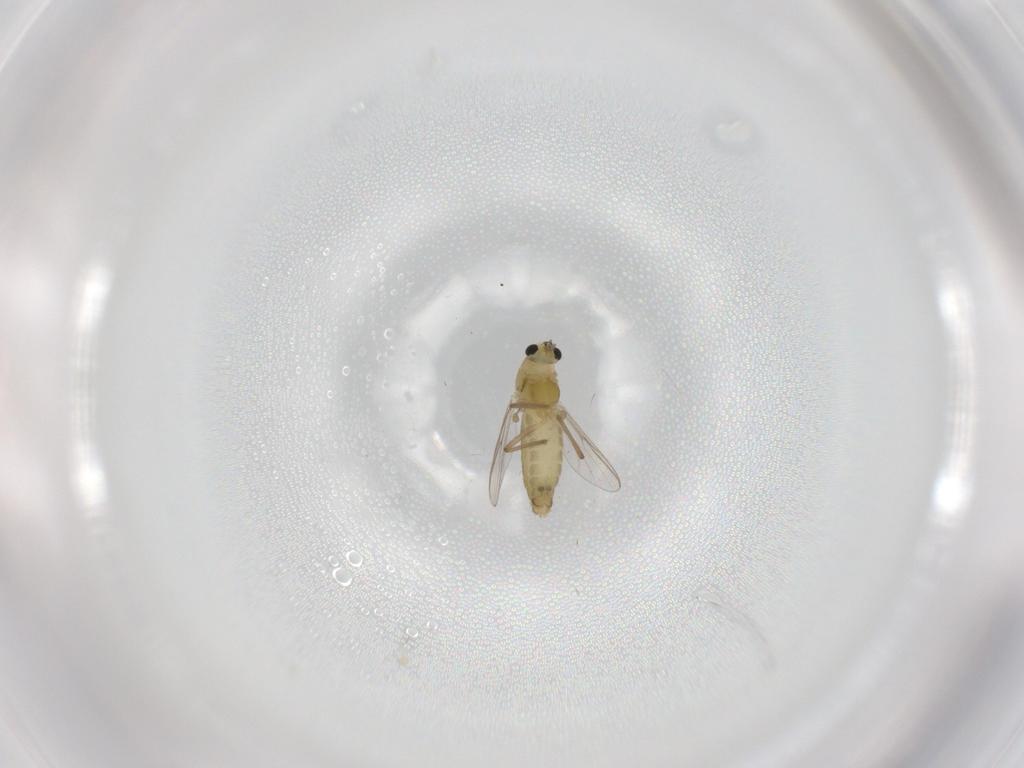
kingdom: Animalia
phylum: Arthropoda
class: Insecta
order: Diptera
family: Chironomidae
